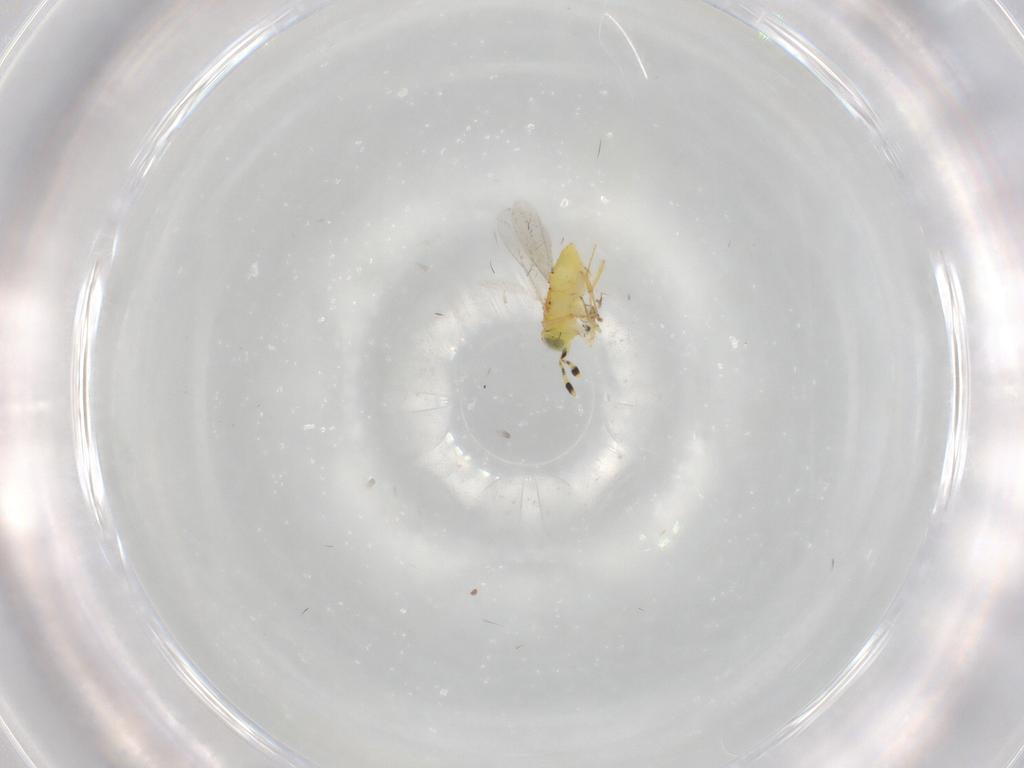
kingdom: Animalia
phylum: Arthropoda
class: Insecta
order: Hymenoptera
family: Encyrtidae
